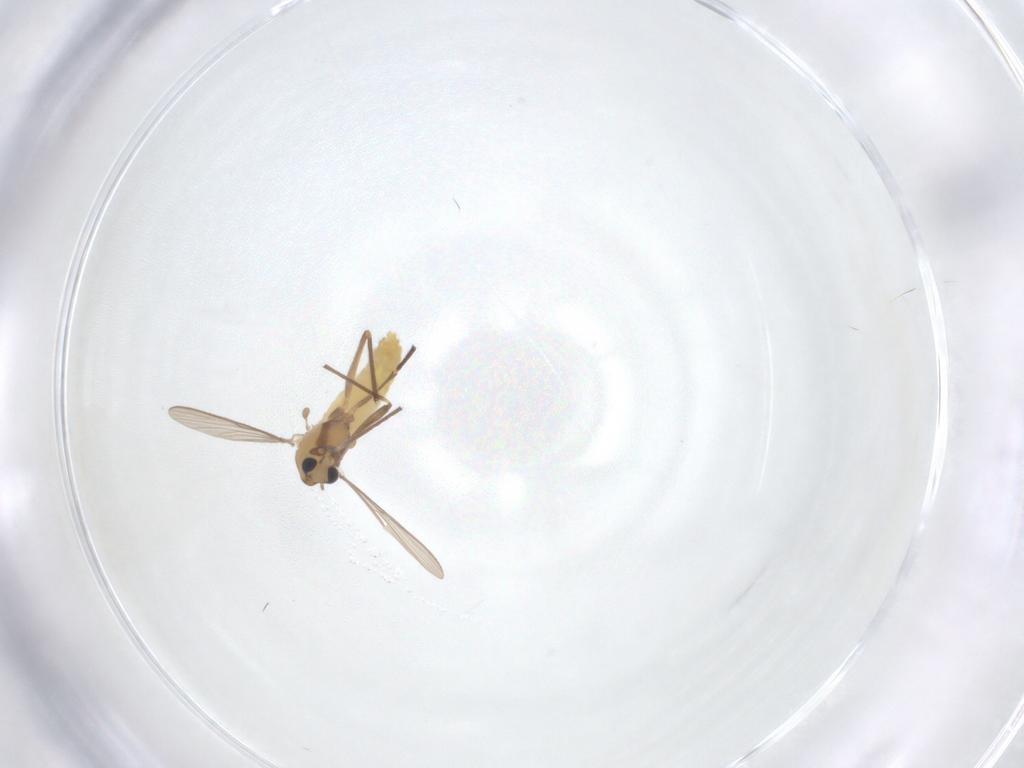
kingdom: Animalia
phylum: Arthropoda
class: Insecta
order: Diptera
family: Chironomidae
